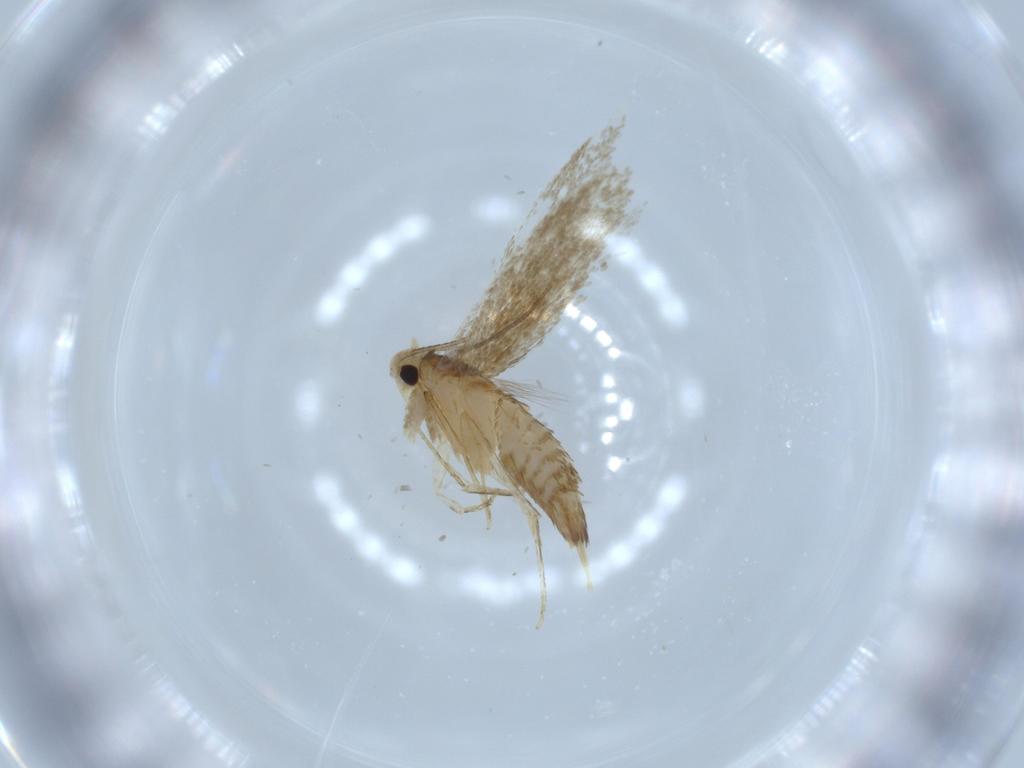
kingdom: Animalia
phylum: Arthropoda
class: Insecta
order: Lepidoptera
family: Tineidae
